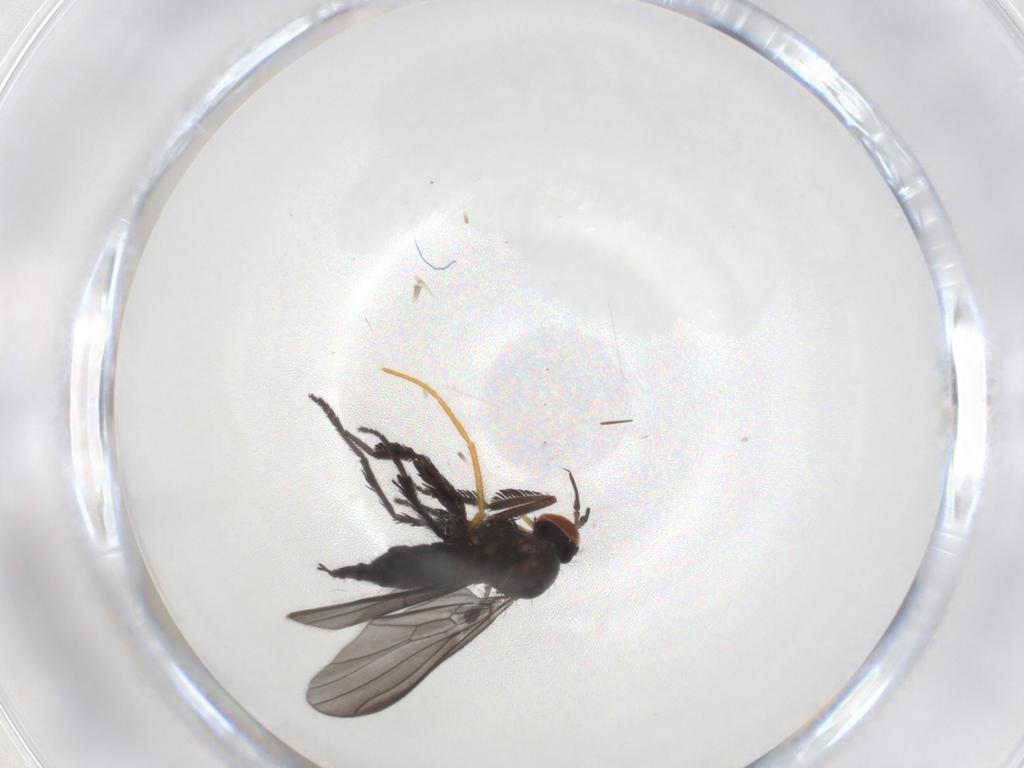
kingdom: Animalia
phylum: Arthropoda
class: Insecta
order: Diptera
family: Empididae
